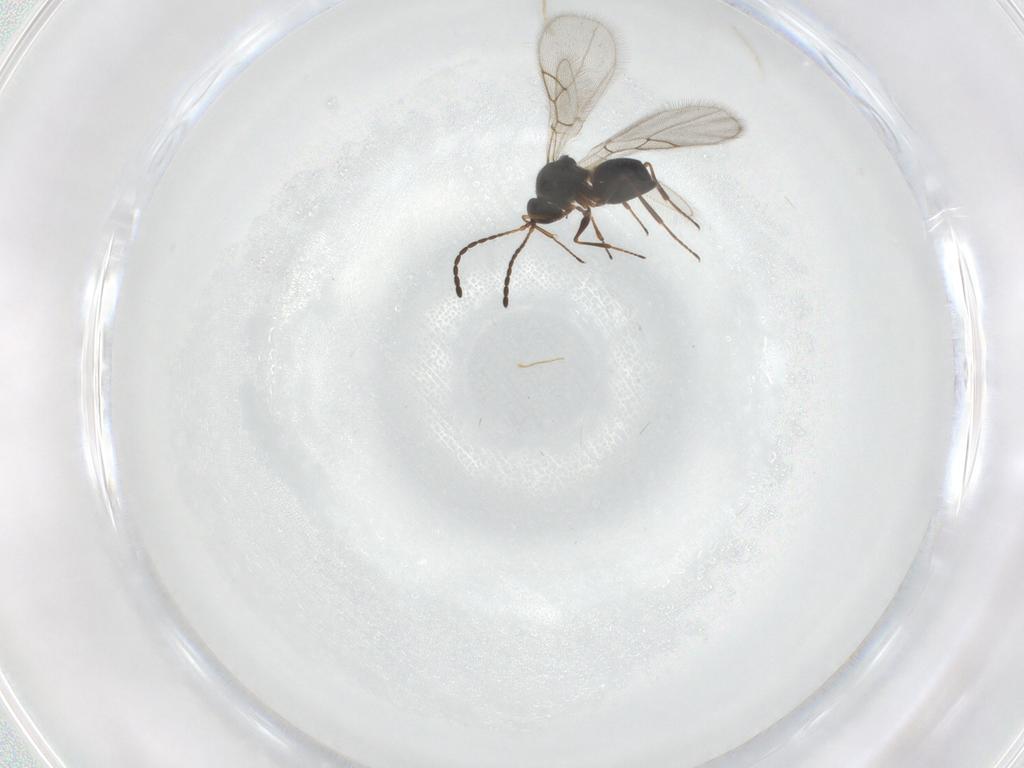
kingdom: Animalia
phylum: Arthropoda
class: Insecta
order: Hymenoptera
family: Figitidae
